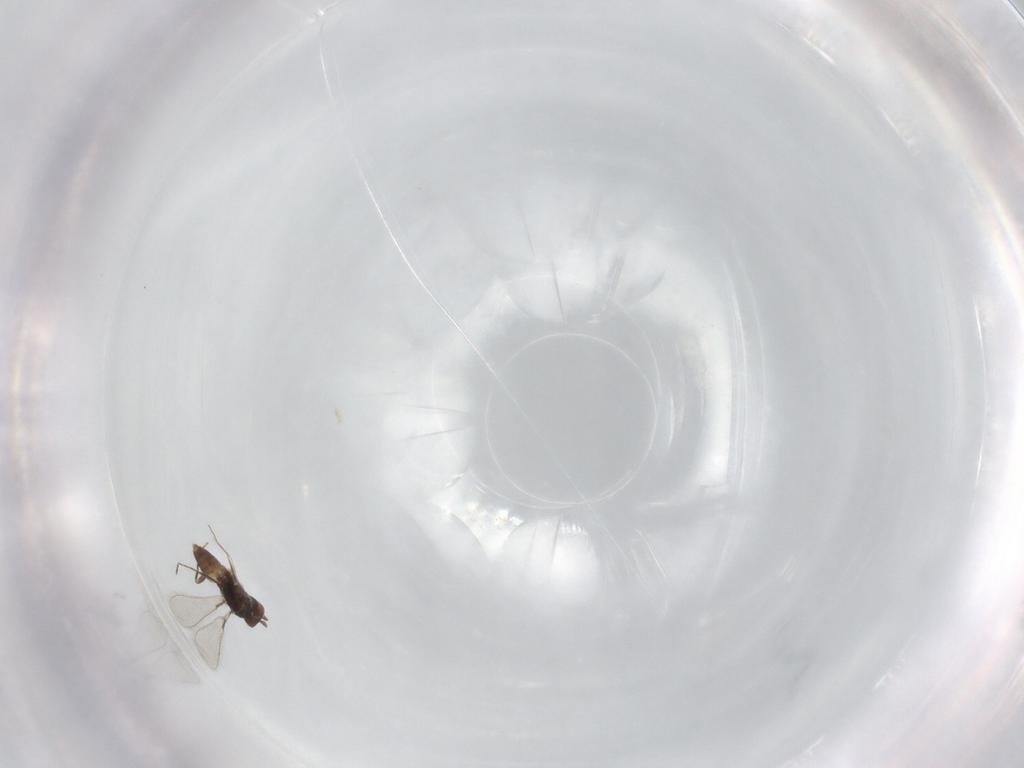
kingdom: Animalia
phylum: Arthropoda
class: Insecta
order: Hymenoptera
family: Mymaridae
